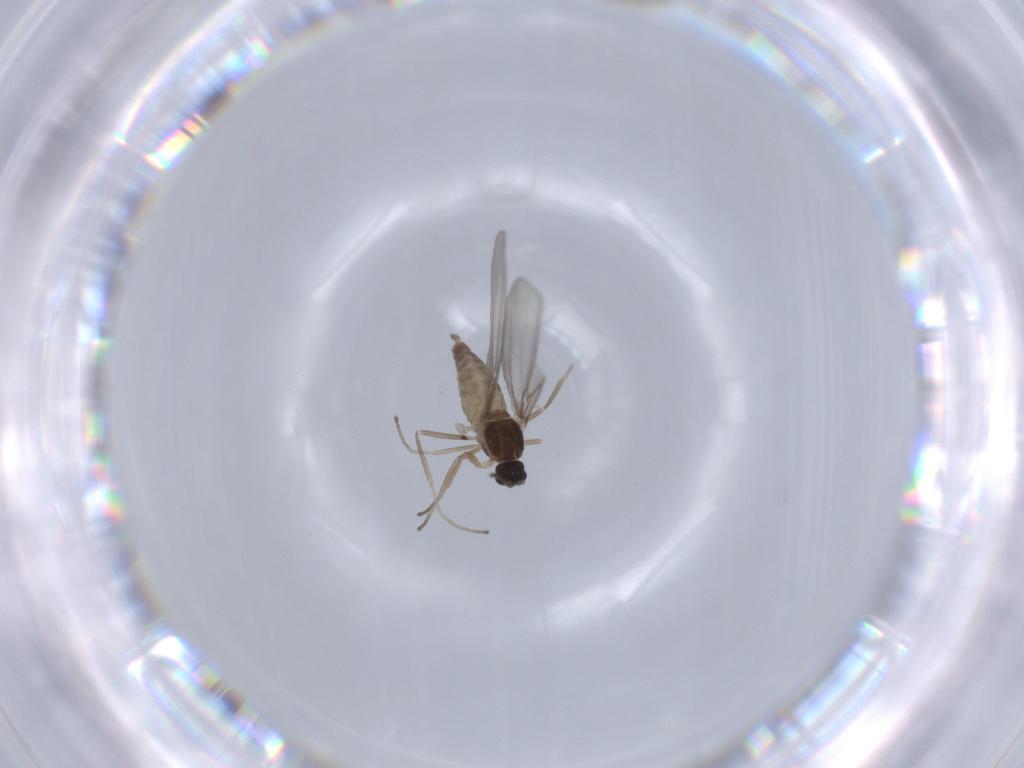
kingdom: Animalia
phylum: Arthropoda
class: Insecta
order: Diptera
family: Cecidomyiidae
